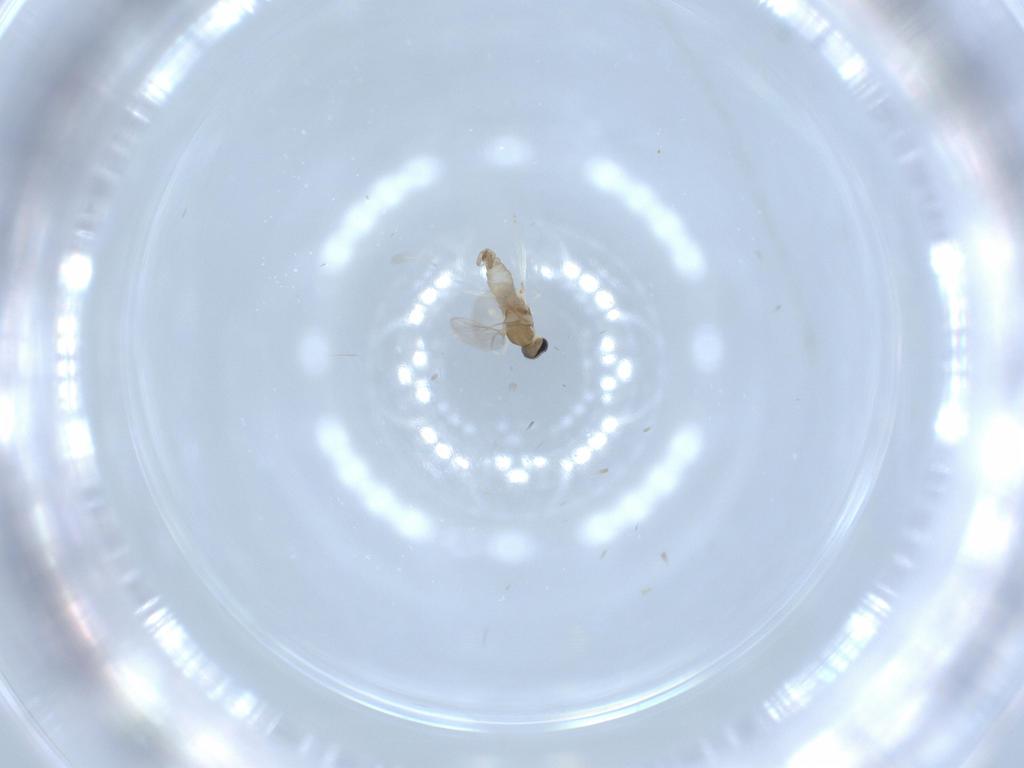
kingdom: Animalia
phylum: Arthropoda
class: Insecta
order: Diptera
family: Cecidomyiidae
